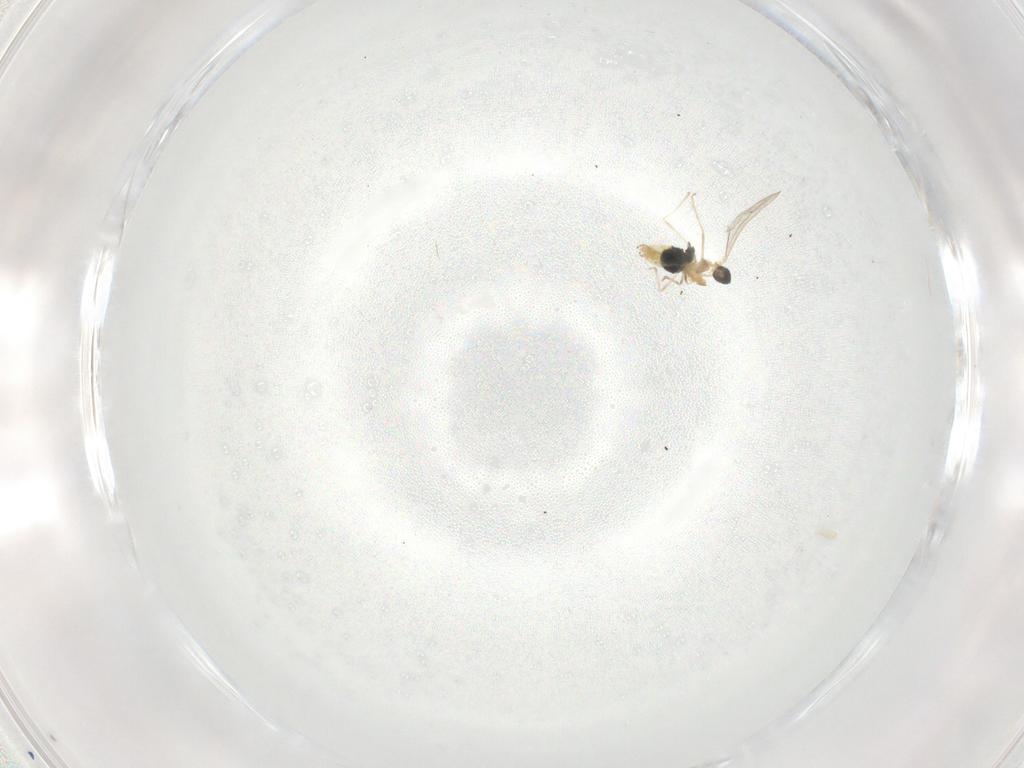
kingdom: Animalia
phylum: Arthropoda
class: Insecta
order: Diptera
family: Cecidomyiidae
